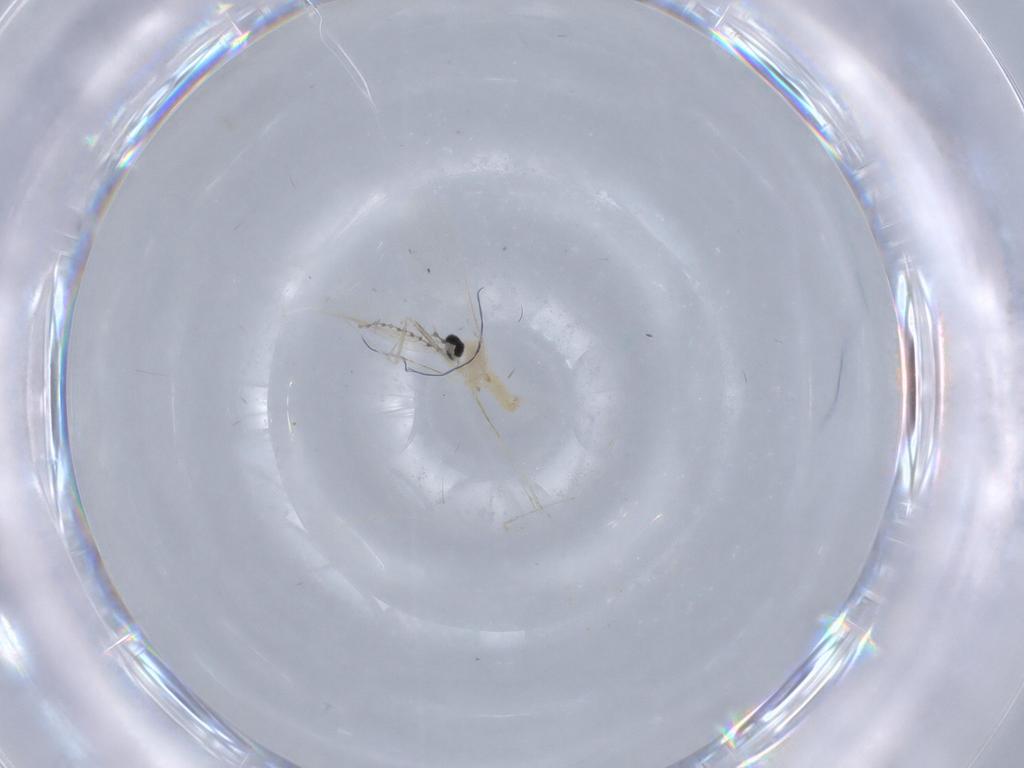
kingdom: Animalia
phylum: Arthropoda
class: Insecta
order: Diptera
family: Cecidomyiidae
